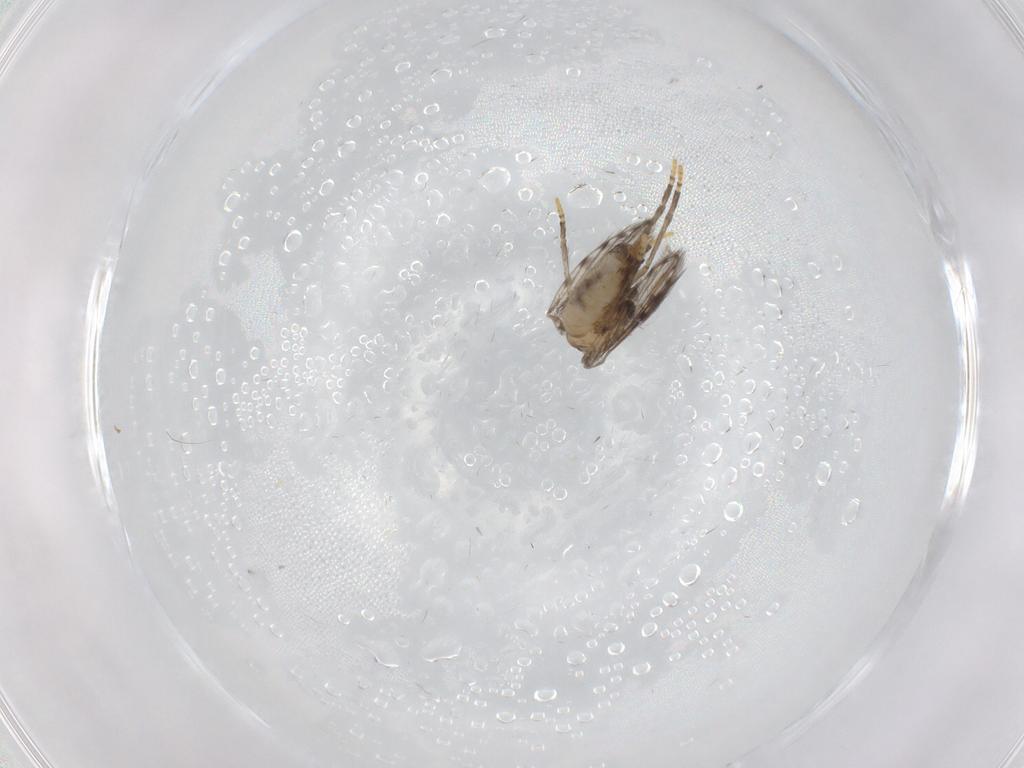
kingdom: Animalia
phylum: Arthropoda
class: Insecta
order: Diptera
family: Psychodidae
